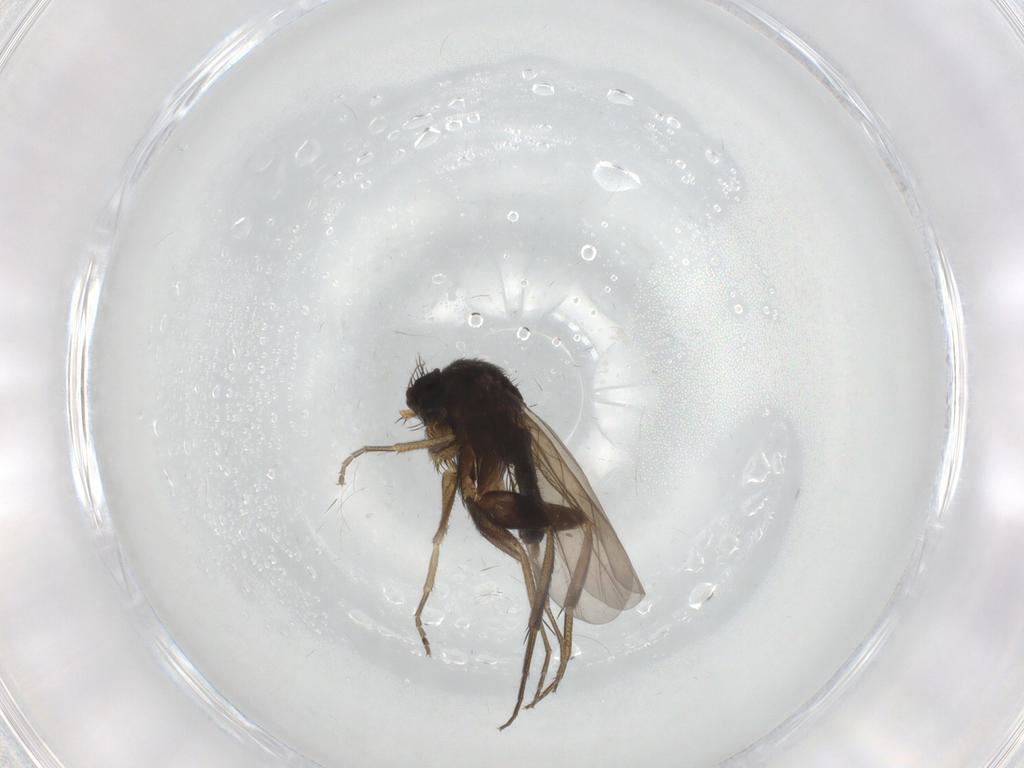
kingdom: Animalia
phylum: Arthropoda
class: Insecta
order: Diptera
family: Phoridae
